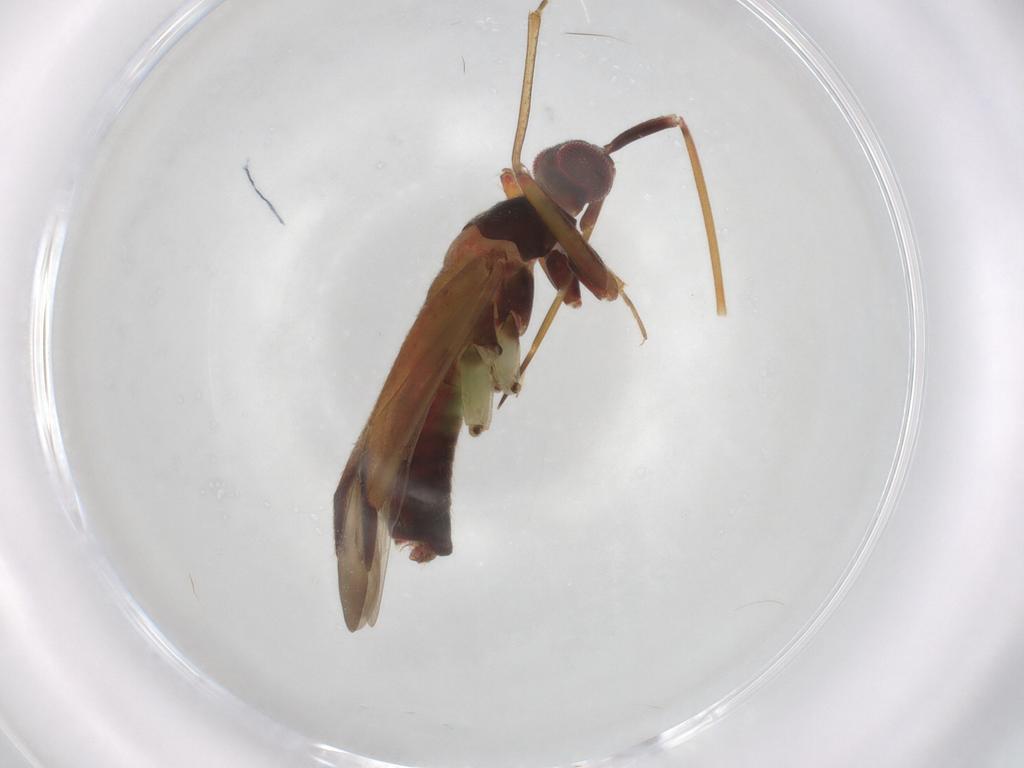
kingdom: Animalia
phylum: Arthropoda
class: Insecta
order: Hemiptera
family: Miridae
